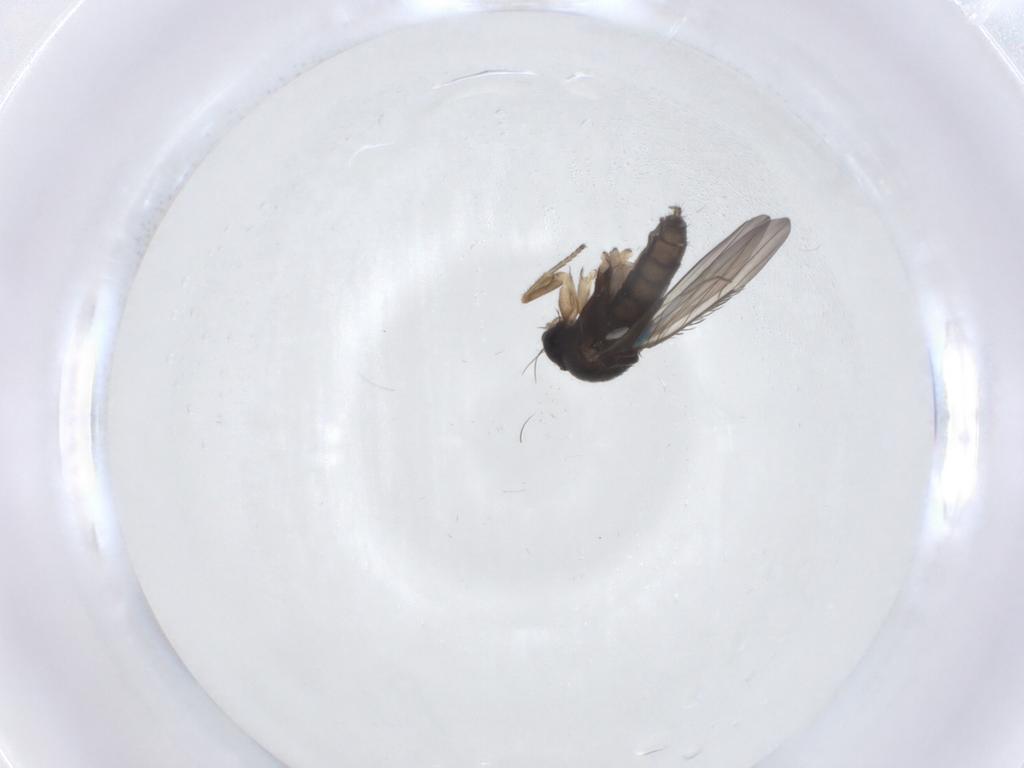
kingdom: Animalia
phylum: Arthropoda
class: Insecta
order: Diptera
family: Phoridae
